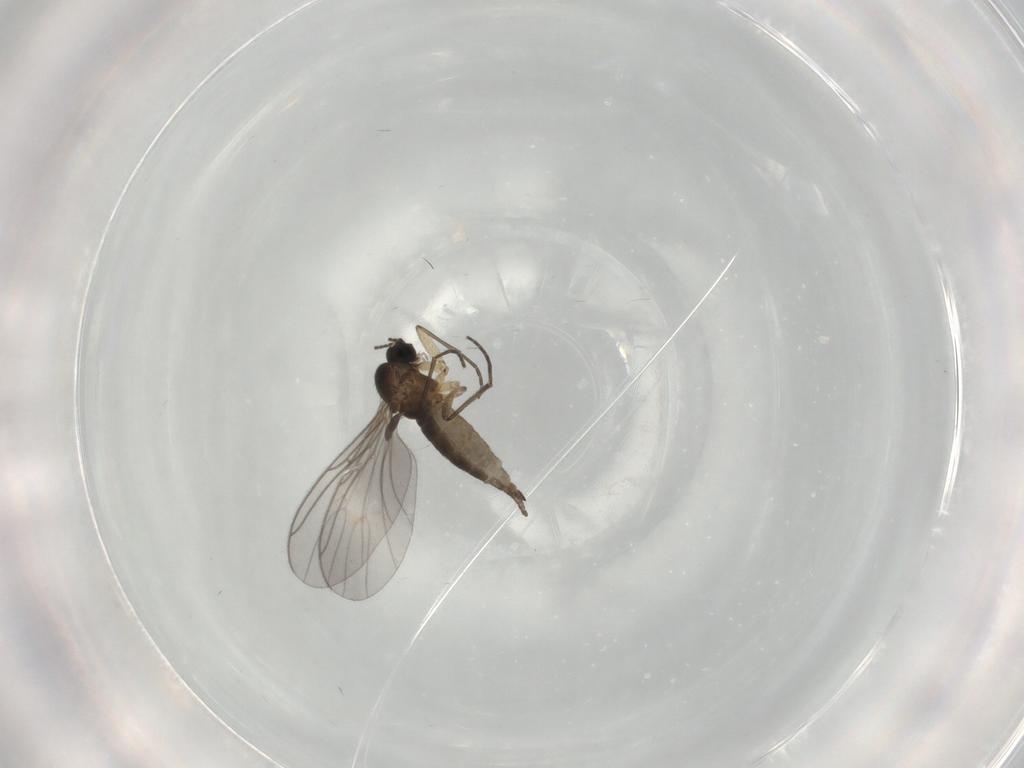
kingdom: Animalia
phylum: Arthropoda
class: Insecta
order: Diptera
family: Sciaridae
